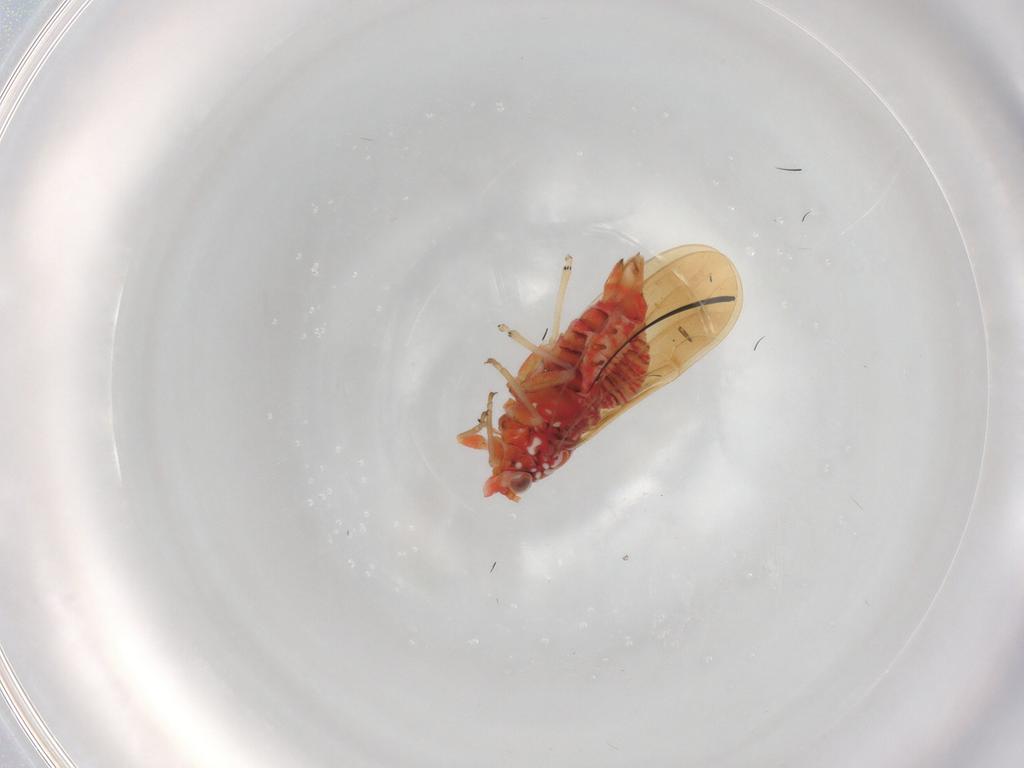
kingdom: Animalia
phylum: Arthropoda
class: Insecta
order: Hemiptera
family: Psyllidae
